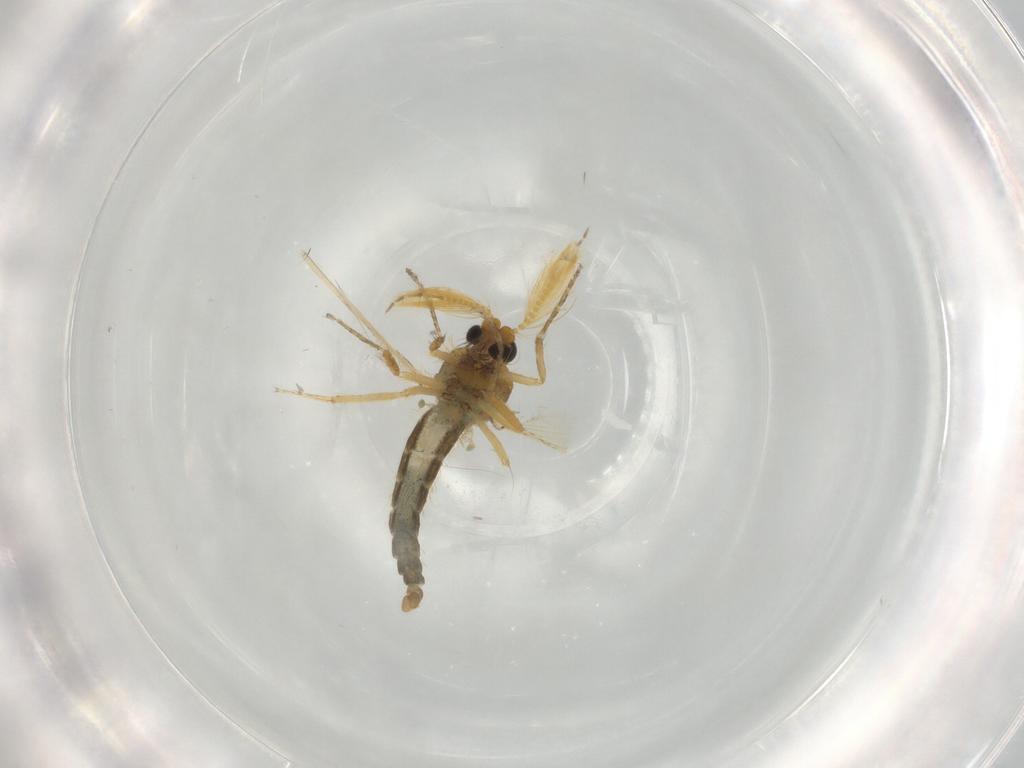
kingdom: Animalia
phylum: Arthropoda
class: Insecta
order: Diptera
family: Ceratopogonidae
